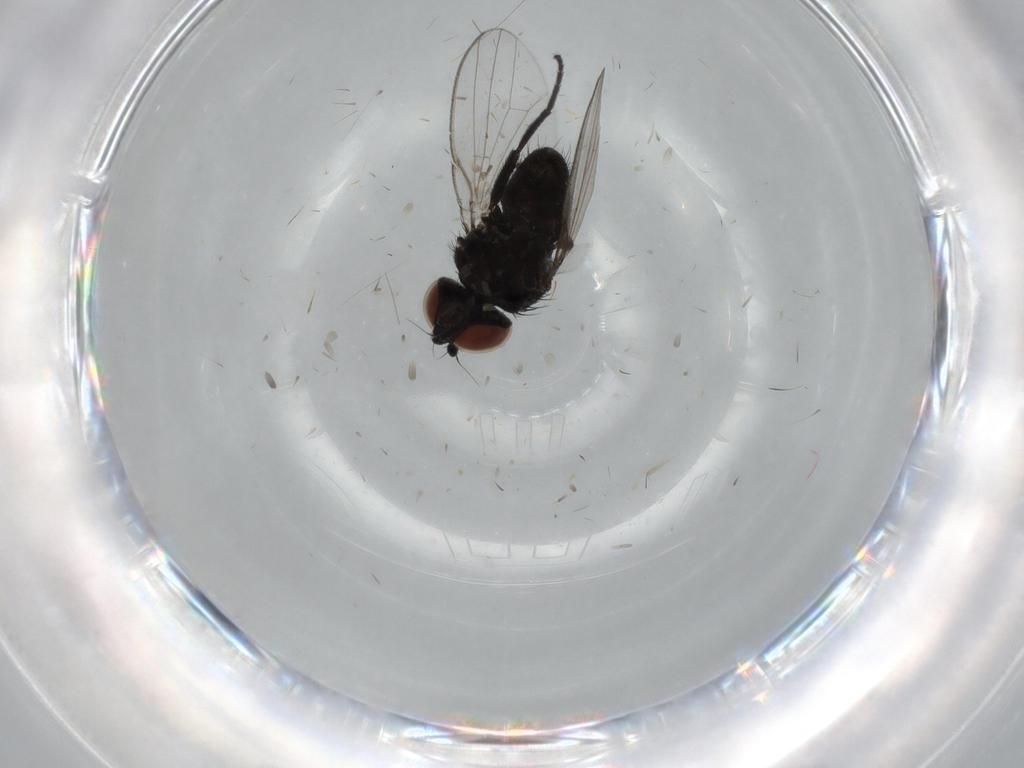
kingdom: Animalia
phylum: Arthropoda
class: Insecta
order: Diptera
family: Milichiidae
